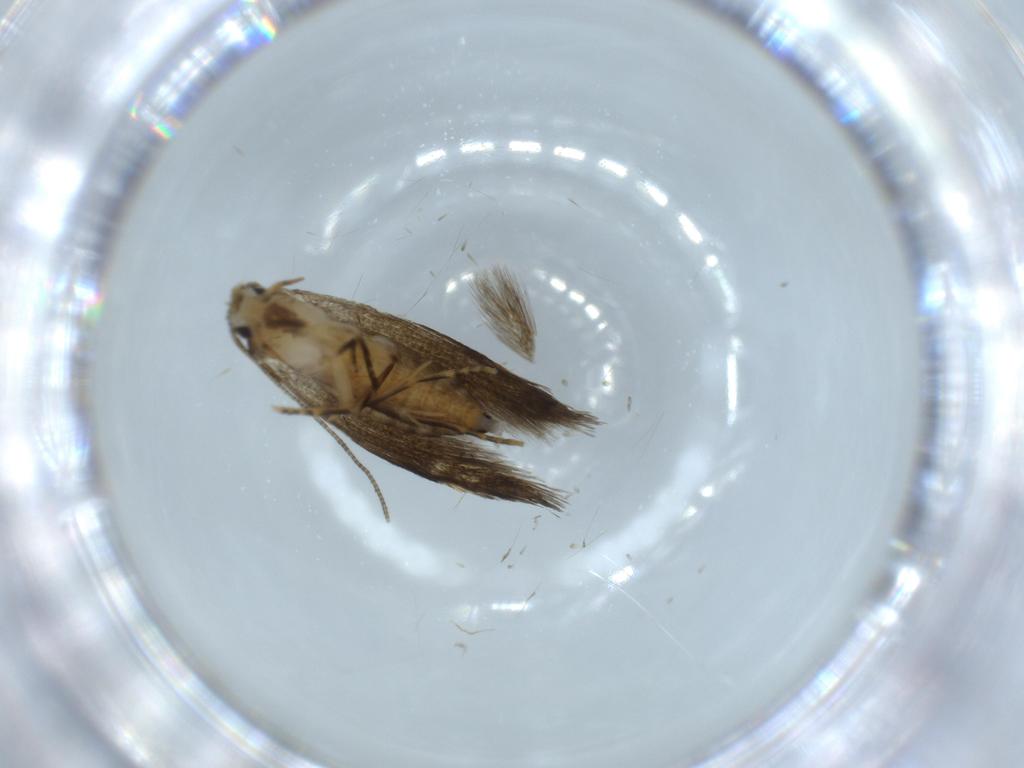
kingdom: Animalia
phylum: Arthropoda
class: Insecta
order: Lepidoptera
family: Tineidae
